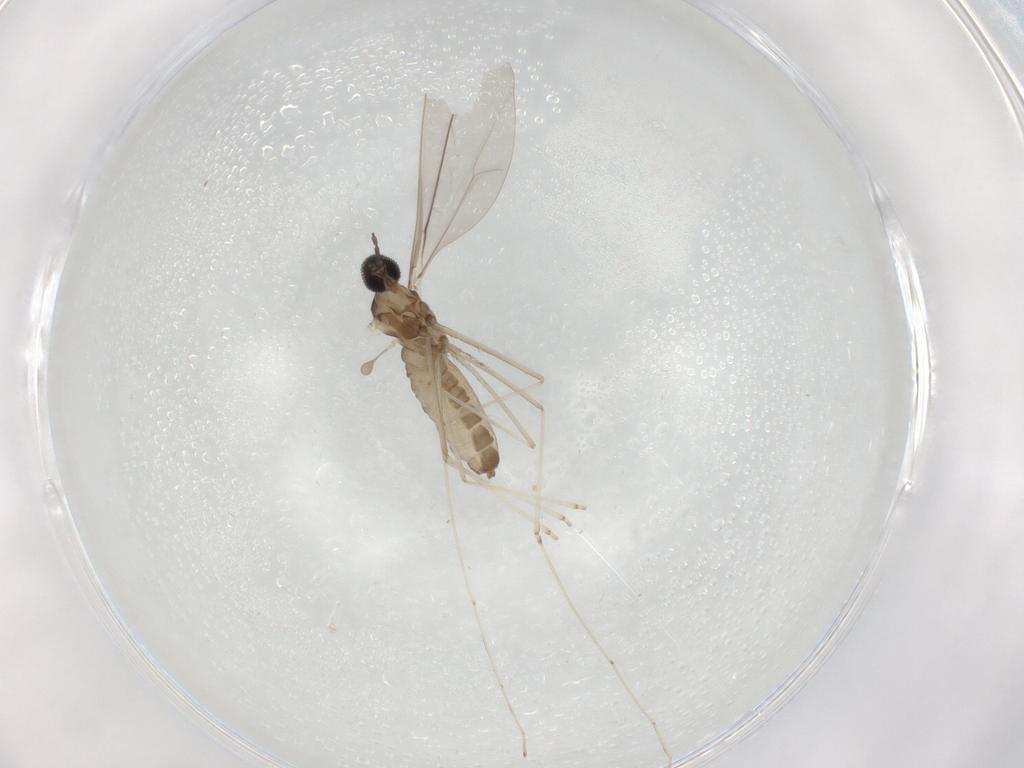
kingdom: Animalia
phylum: Arthropoda
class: Insecta
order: Diptera
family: Cecidomyiidae
